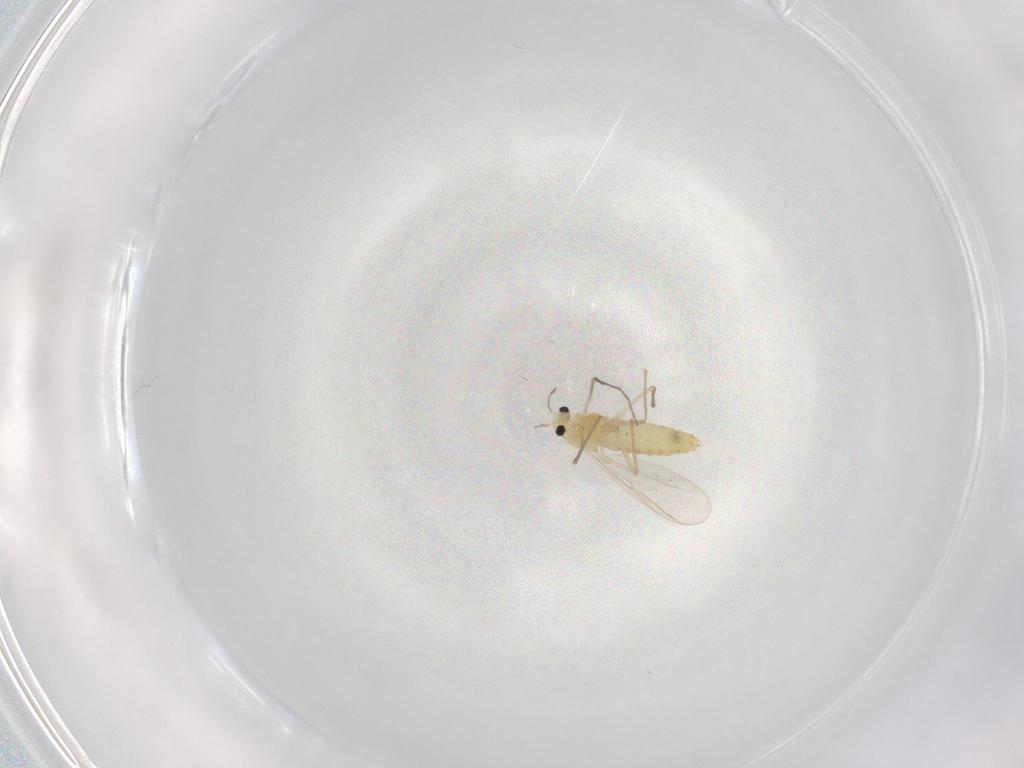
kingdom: Animalia
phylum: Arthropoda
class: Insecta
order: Diptera
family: Chironomidae
